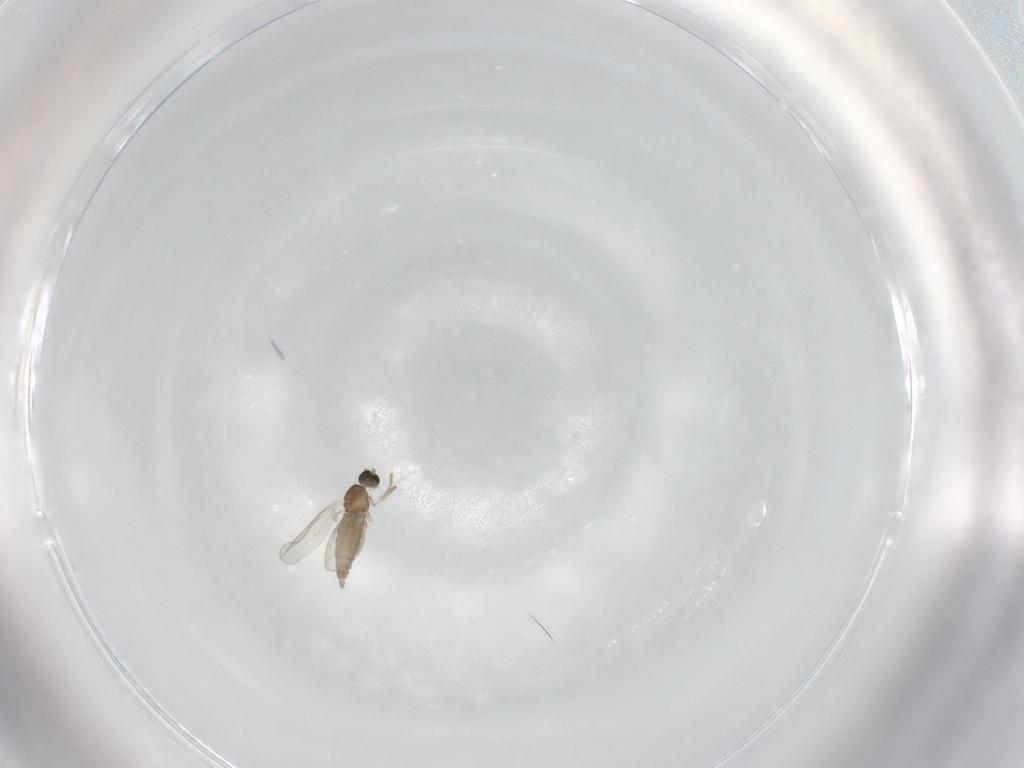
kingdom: Animalia
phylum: Arthropoda
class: Insecta
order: Diptera
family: Cecidomyiidae
